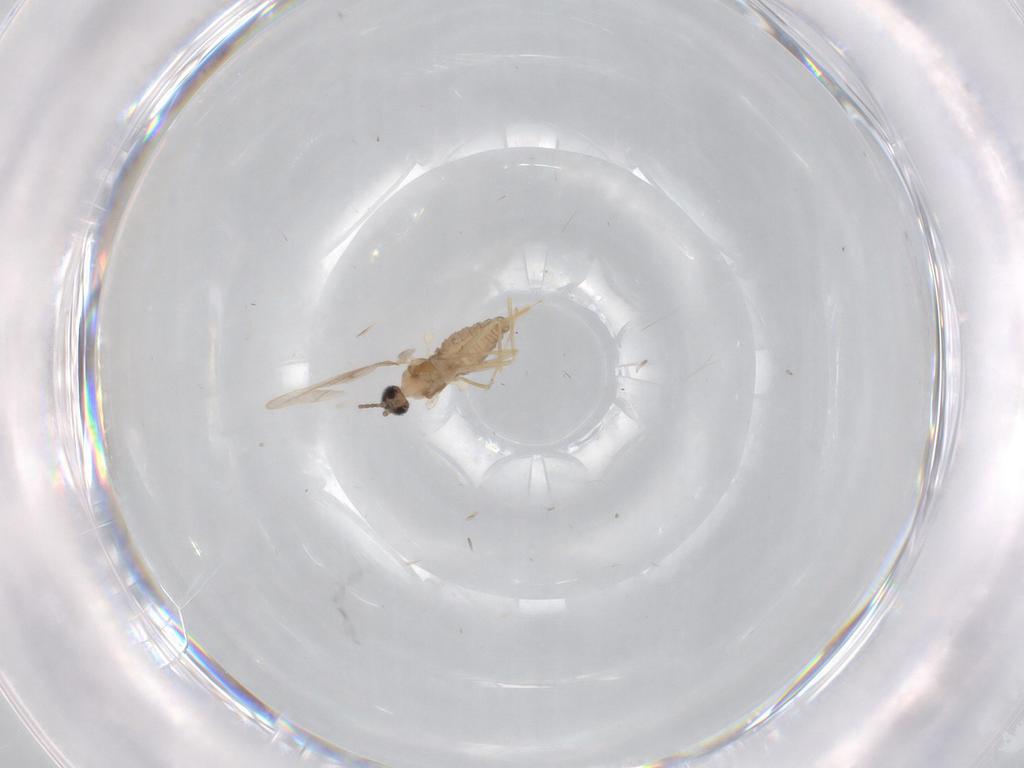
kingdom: Animalia
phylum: Arthropoda
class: Insecta
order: Diptera
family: Cecidomyiidae
